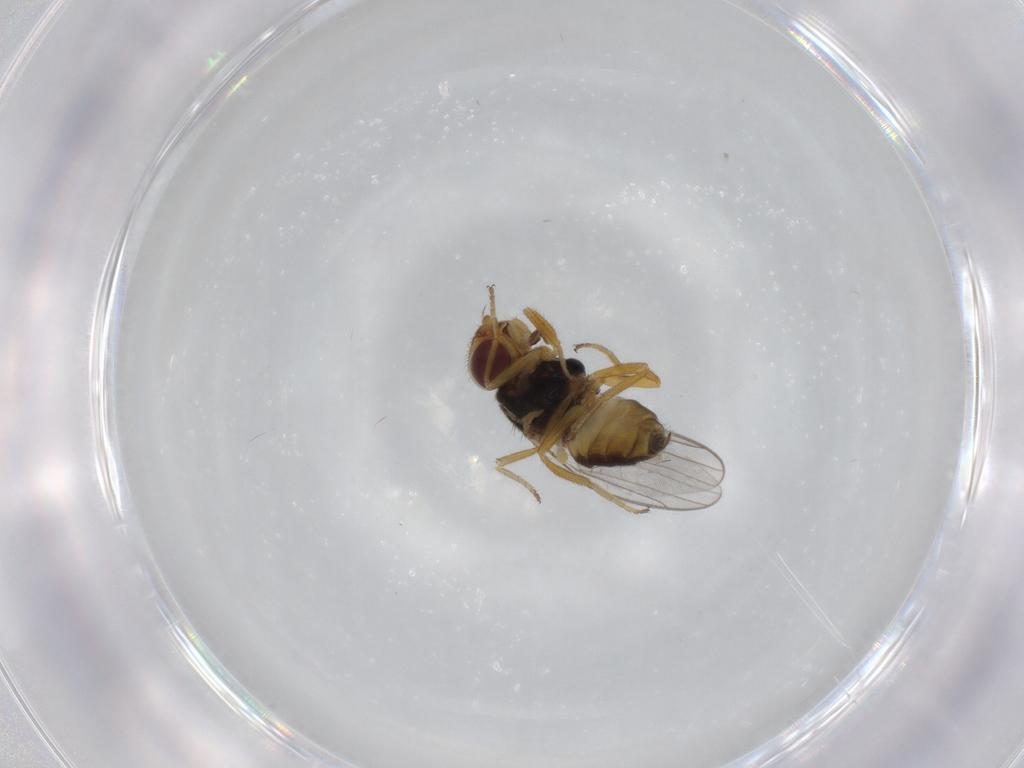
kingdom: Animalia
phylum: Arthropoda
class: Insecta
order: Diptera
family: Chloropidae
